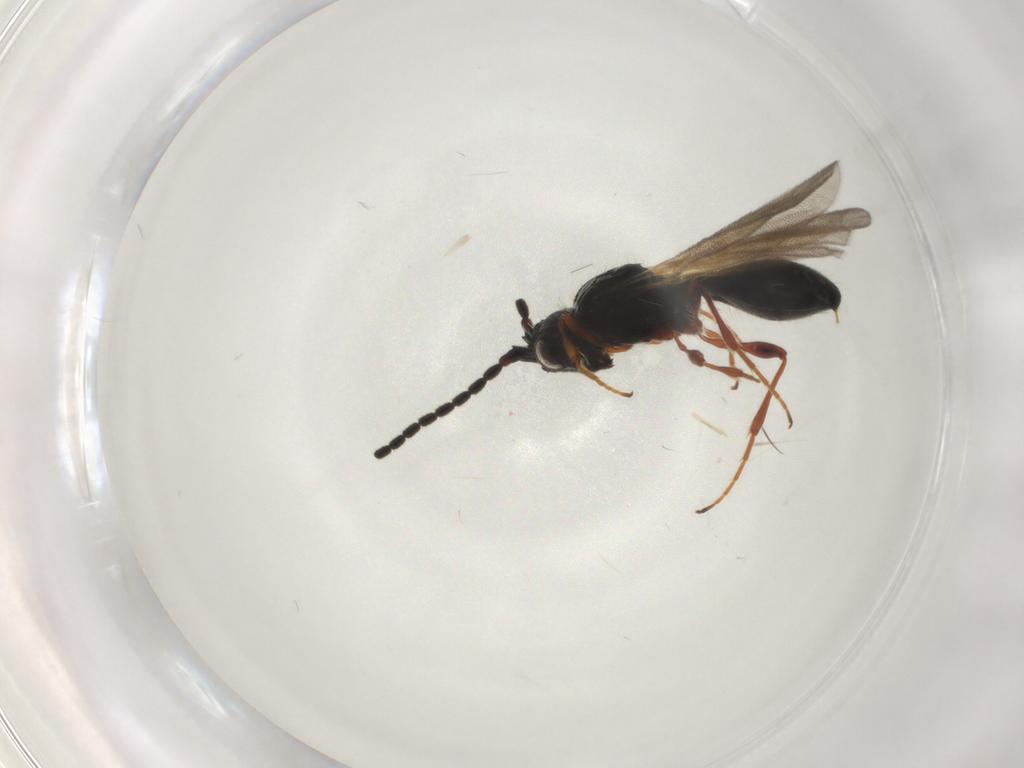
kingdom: Animalia
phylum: Arthropoda
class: Insecta
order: Hymenoptera
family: Diapriidae
